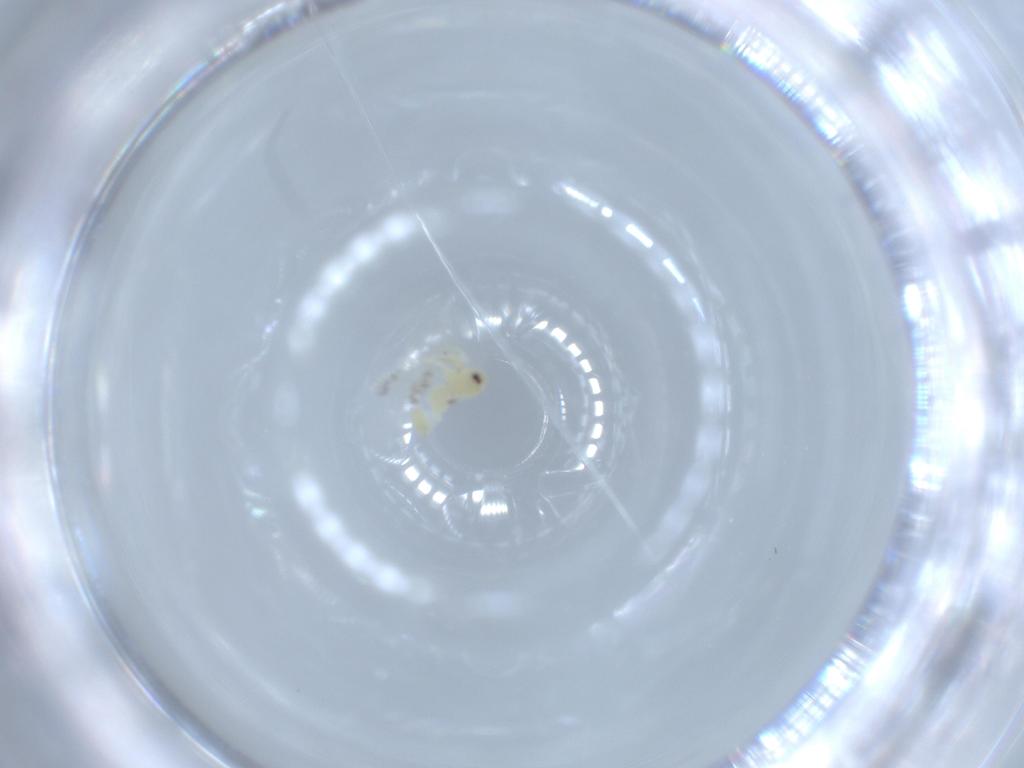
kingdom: Animalia
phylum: Arthropoda
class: Insecta
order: Hemiptera
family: Aleyrodidae
